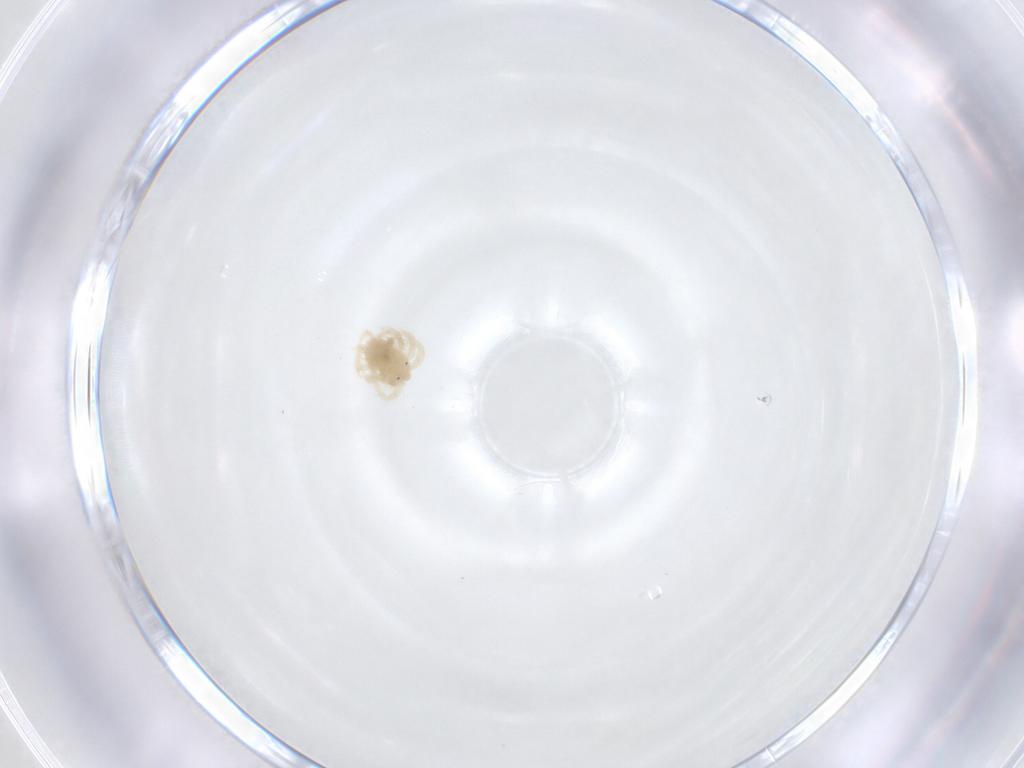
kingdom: Animalia
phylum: Arthropoda
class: Arachnida
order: Trombidiformes
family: Anystidae
